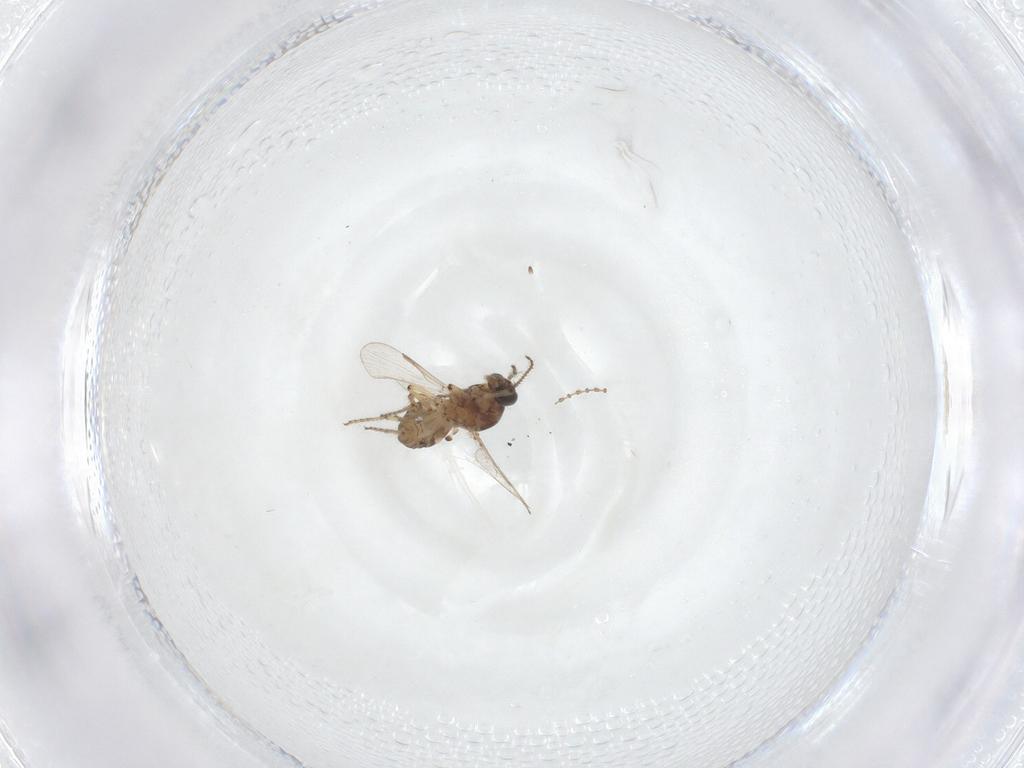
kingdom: Animalia
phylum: Arthropoda
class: Insecta
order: Diptera
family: Ceratopogonidae
